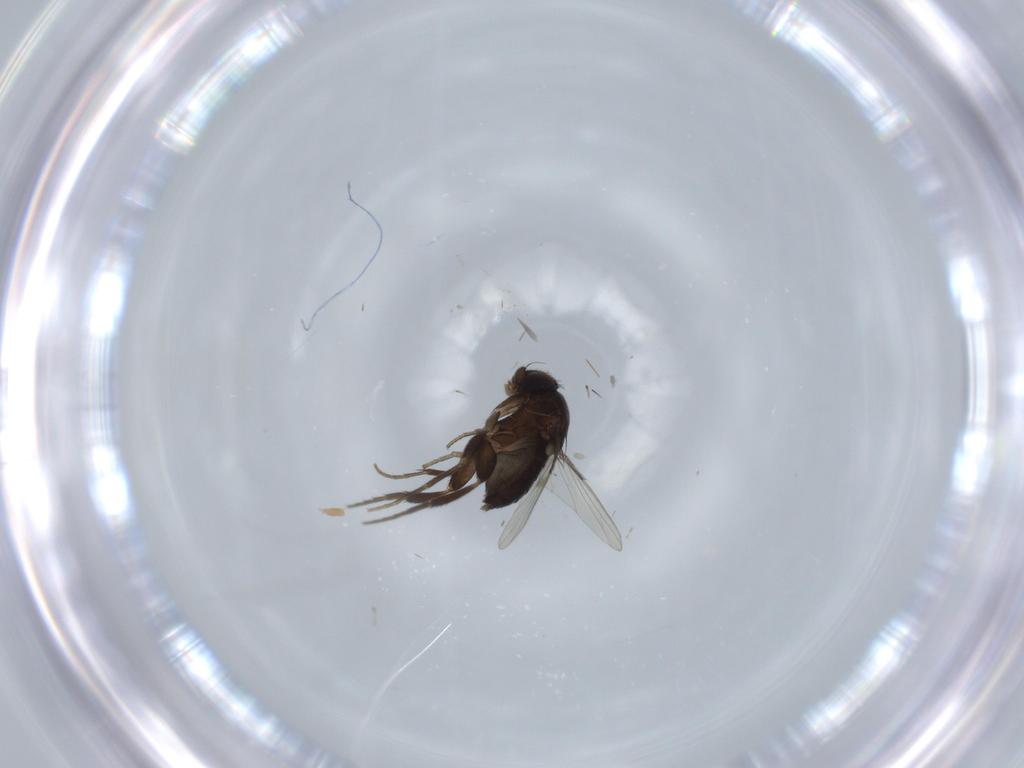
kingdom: Animalia
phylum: Arthropoda
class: Insecta
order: Diptera
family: Phoridae
